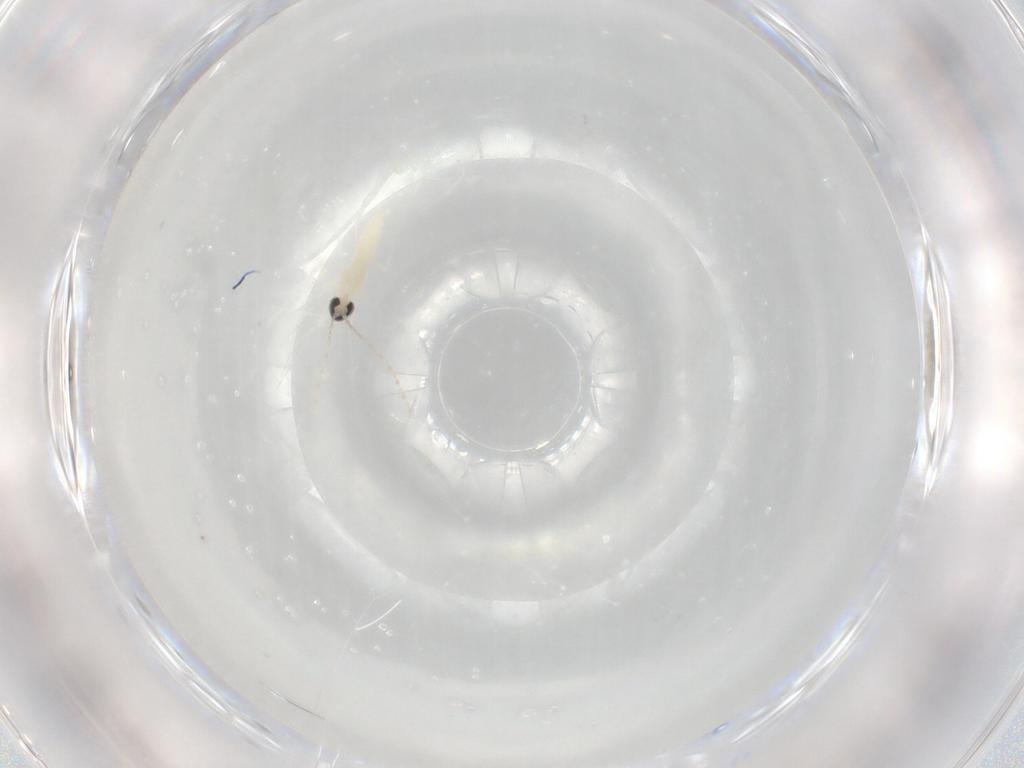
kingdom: Animalia
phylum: Arthropoda
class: Insecta
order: Diptera
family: Cecidomyiidae
